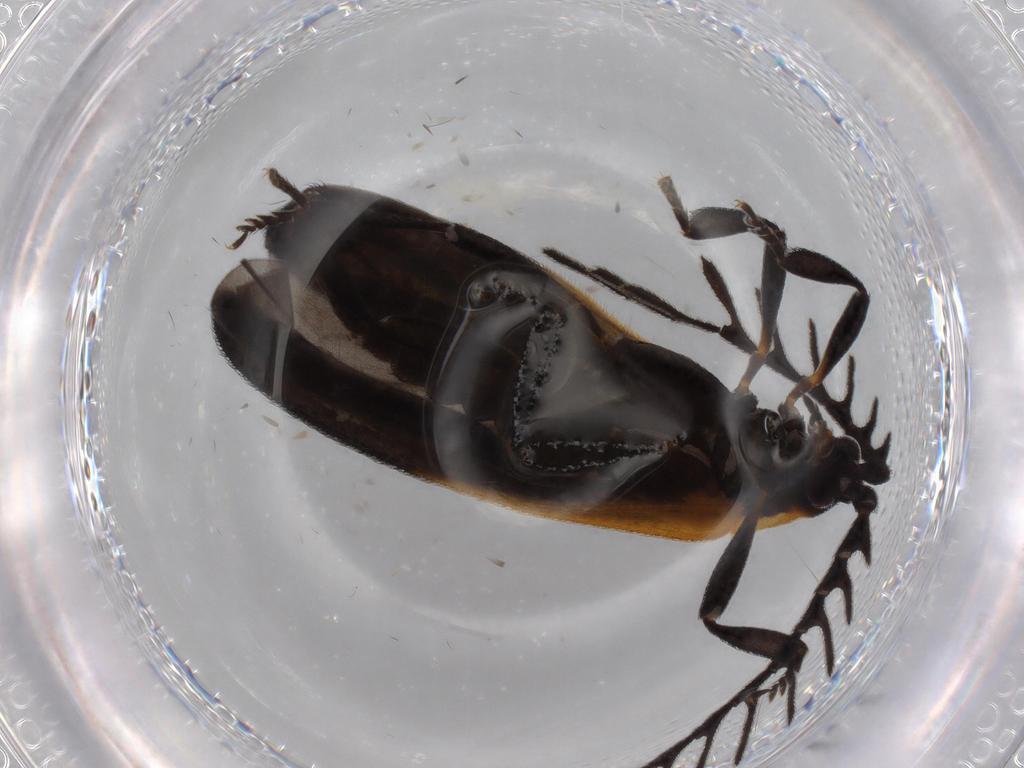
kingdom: Animalia
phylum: Arthropoda
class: Insecta
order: Coleoptera
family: Lycidae
